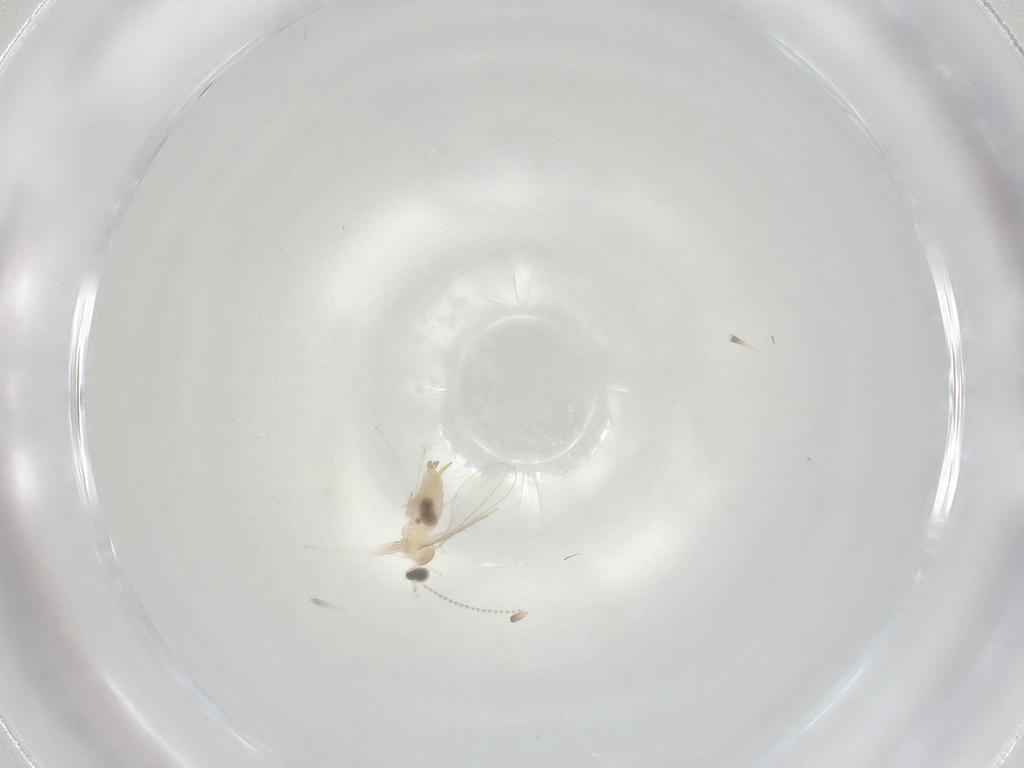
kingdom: Animalia
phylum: Arthropoda
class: Insecta
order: Diptera
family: Cecidomyiidae
